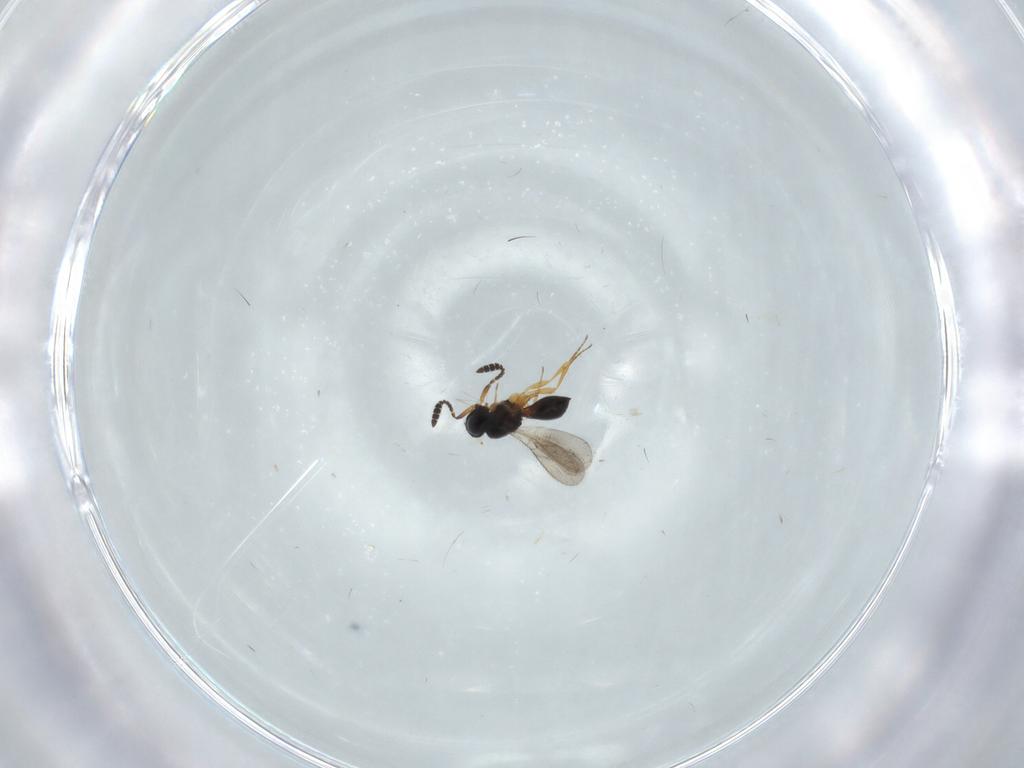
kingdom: Animalia
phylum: Arthropoda
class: Insecta
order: Hymenoptera
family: Scelionidae
